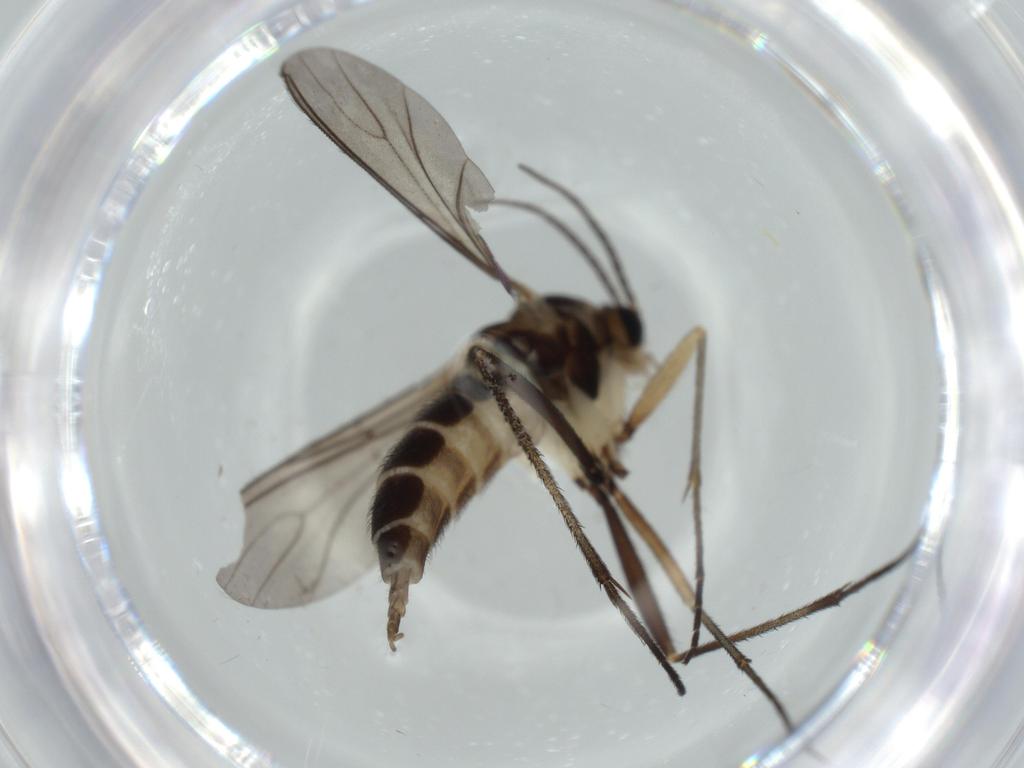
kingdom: Animalia
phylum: Arthropoda
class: Insecta
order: Diptera
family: Sciaridae
